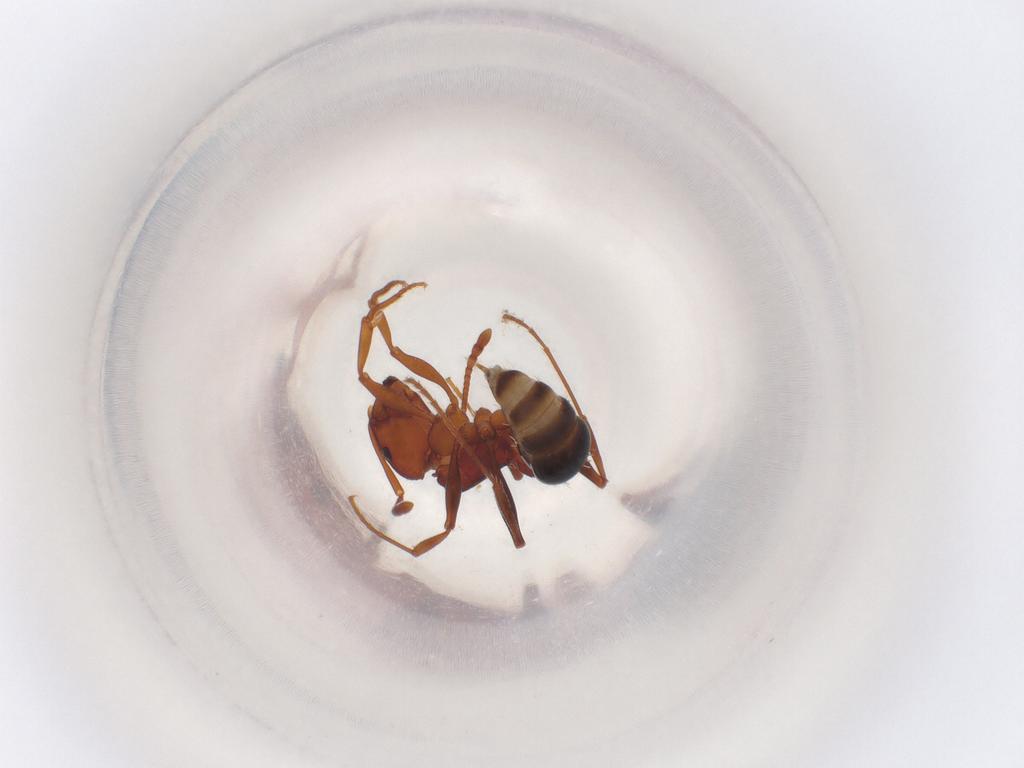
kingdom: Animalia
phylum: Arthropoda
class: Insecta
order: Hymenoptera
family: Formicidae
